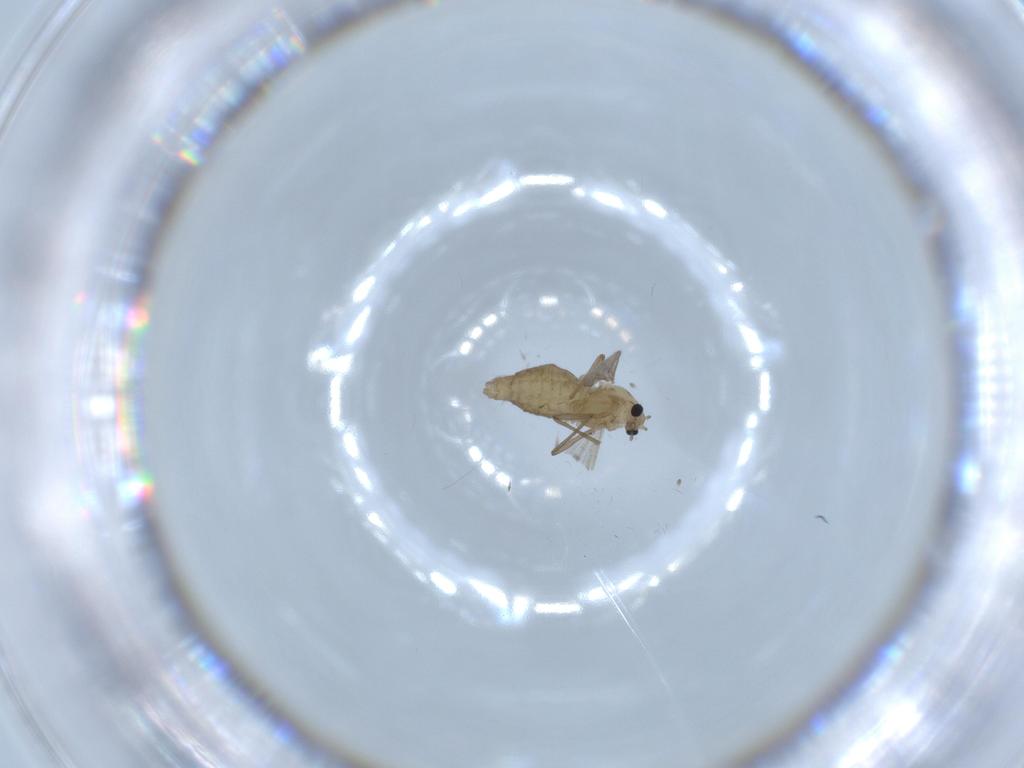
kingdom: Animalia
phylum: Arthropoda
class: Insecta
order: Diptera
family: Chironomidae
